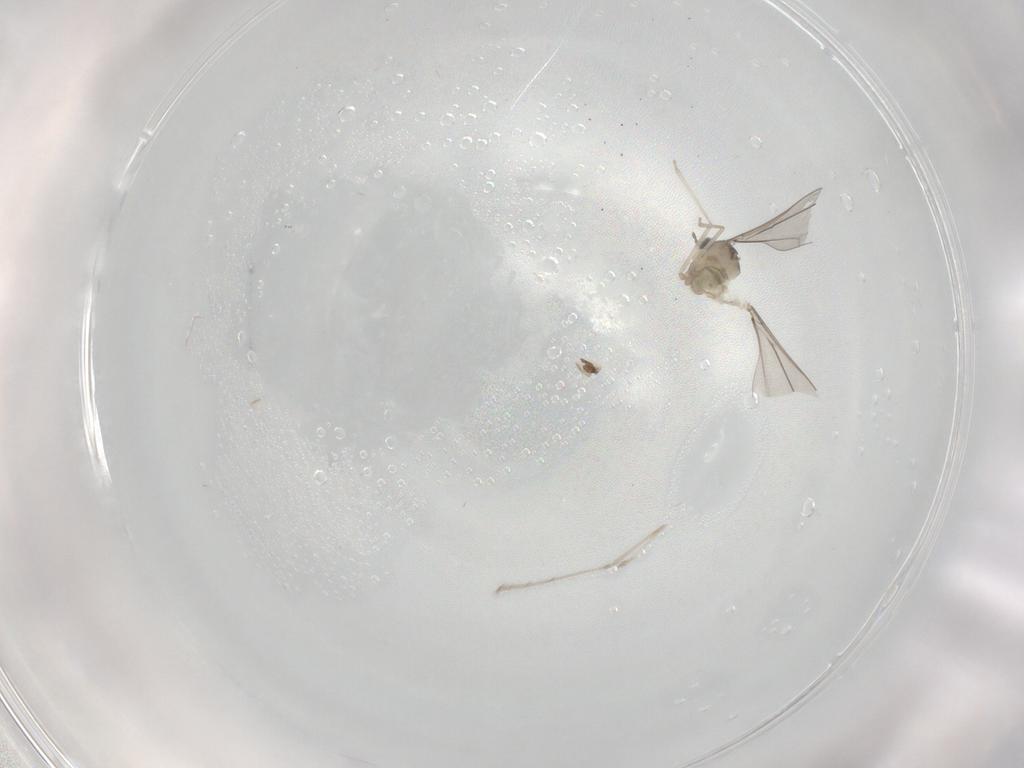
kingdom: Animalia
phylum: Arthropoda
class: Insecta
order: Diptera
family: Cecidomyiidae
